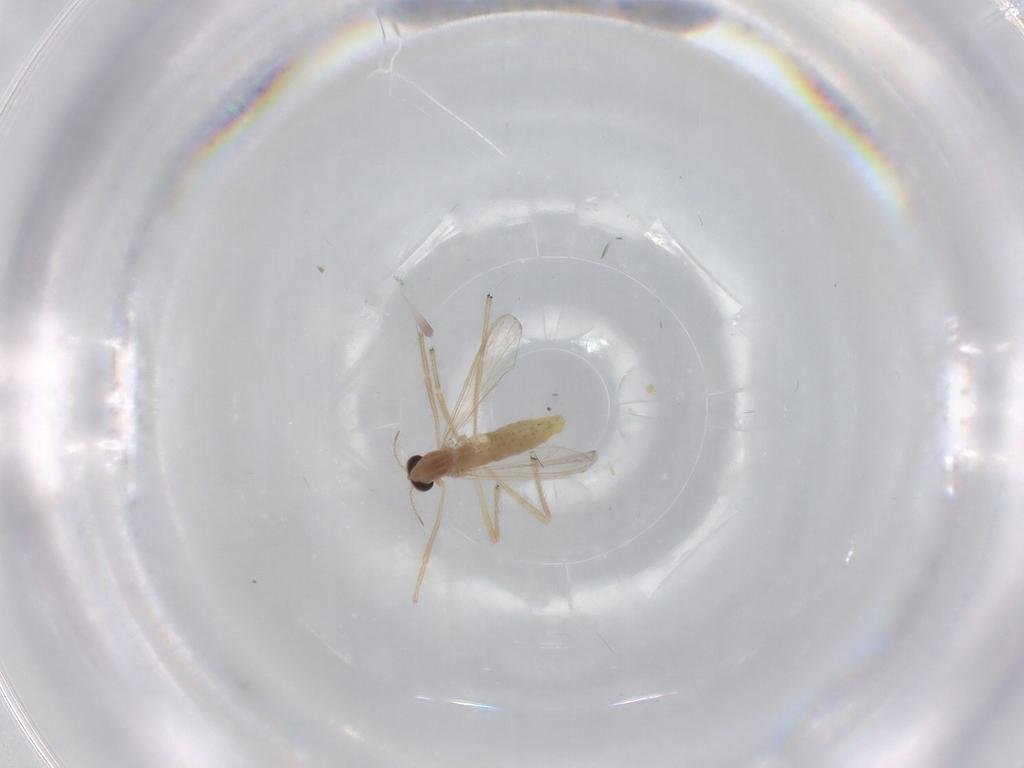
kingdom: Animalia
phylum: Arthropoda
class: Insecta
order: Diptera
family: Chironomidae
